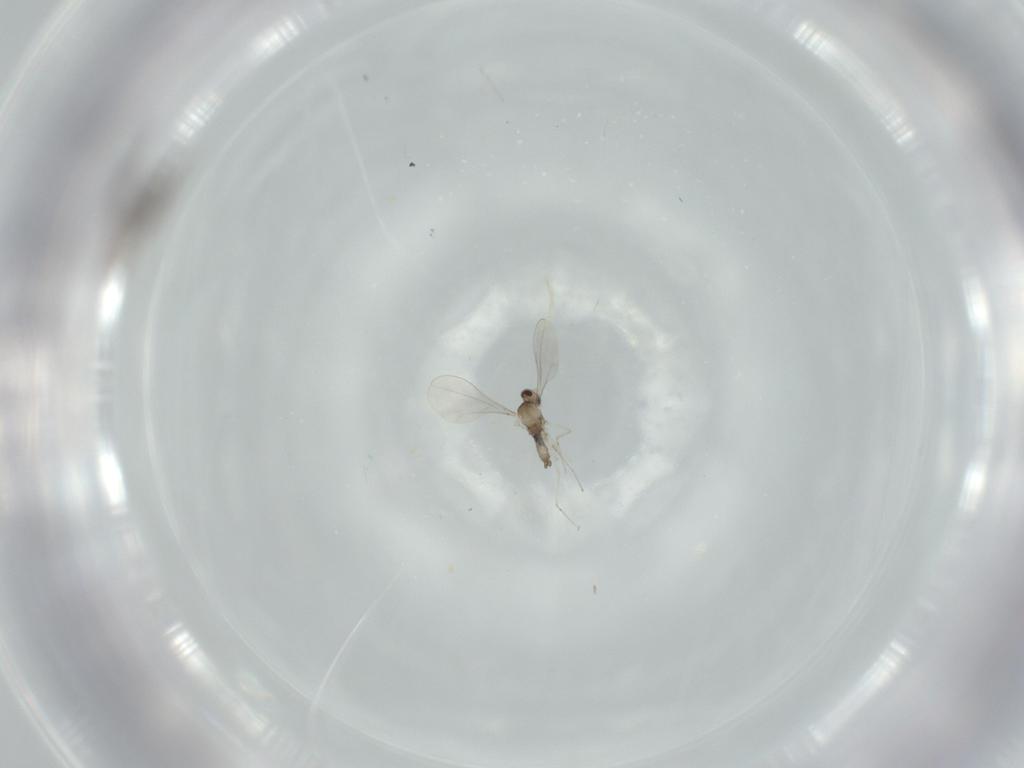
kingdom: Animalia
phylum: Arthropoda
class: Insecta
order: Diptera
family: Cecidomyiidae
